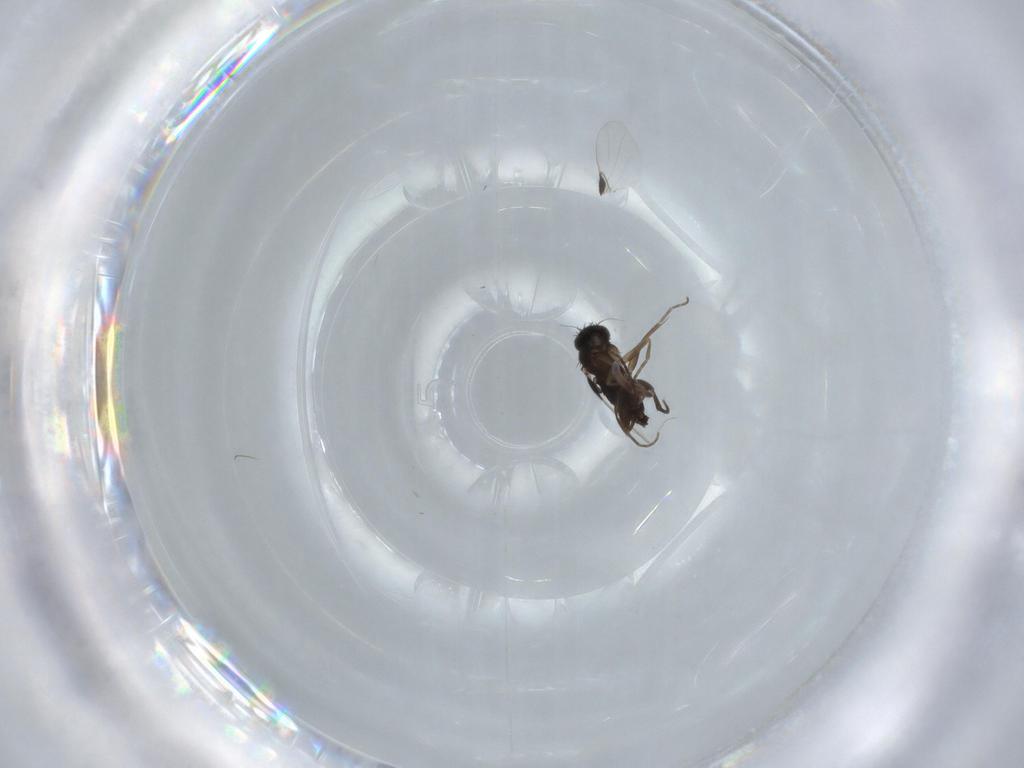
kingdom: Animalia
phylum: Arthropoda
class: Insecta
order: Diptera
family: Phoridae
